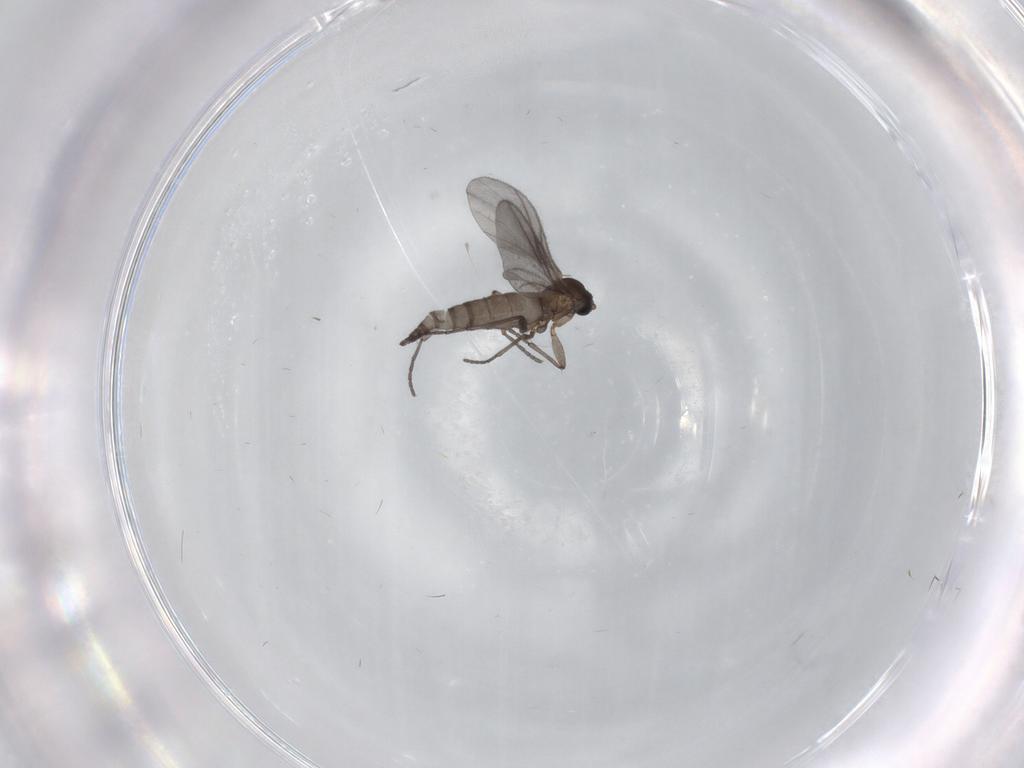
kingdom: Animalia
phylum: Arthropoda
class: Insecta
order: Diptera
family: Sciaridae
